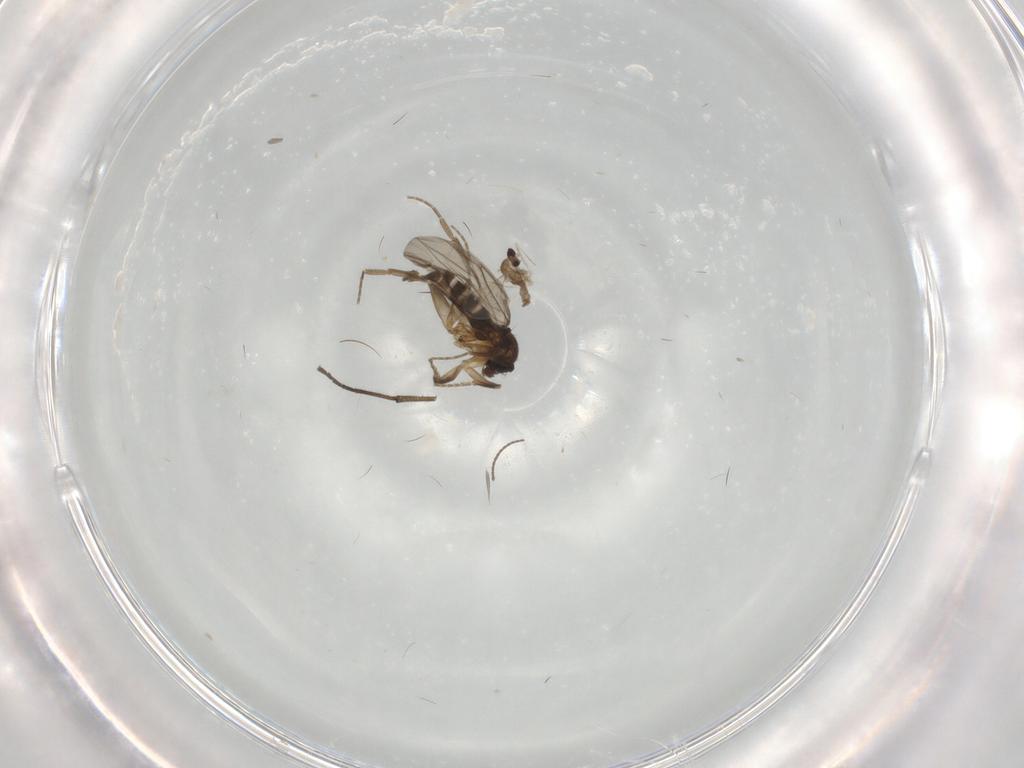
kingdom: Animalia
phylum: Arthropoda
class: Insecta
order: Diptera
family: Cecidomyiidae
